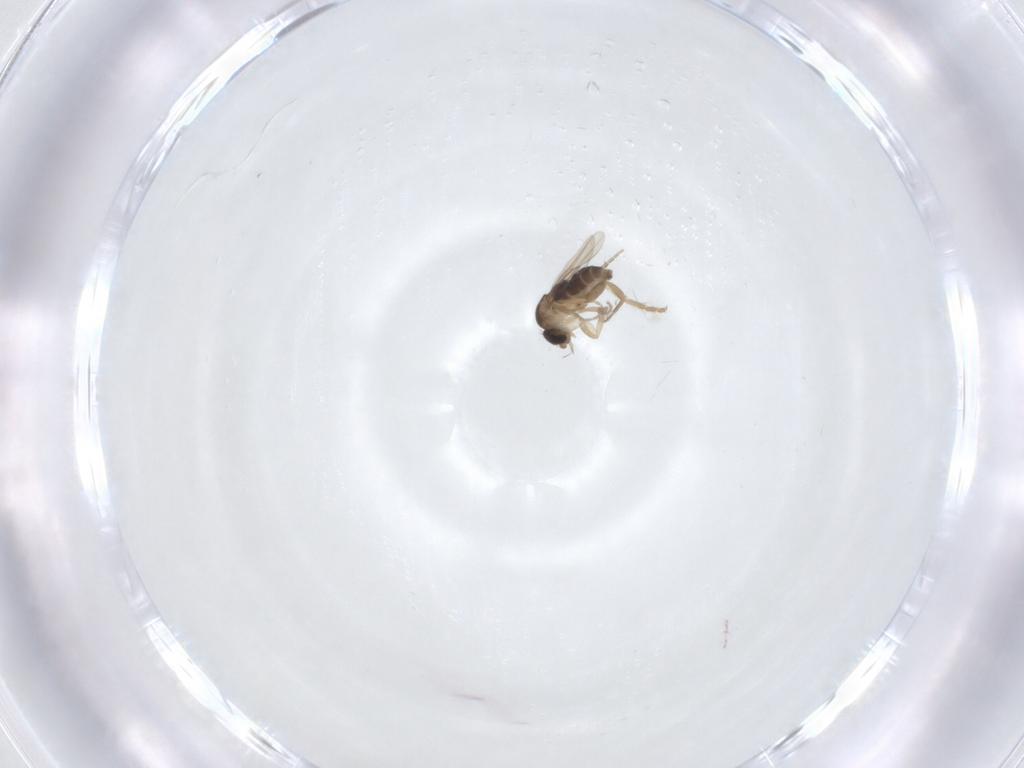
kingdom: Animalia
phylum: Arthropoda
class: Insecta
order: Diptera
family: Phoridae
